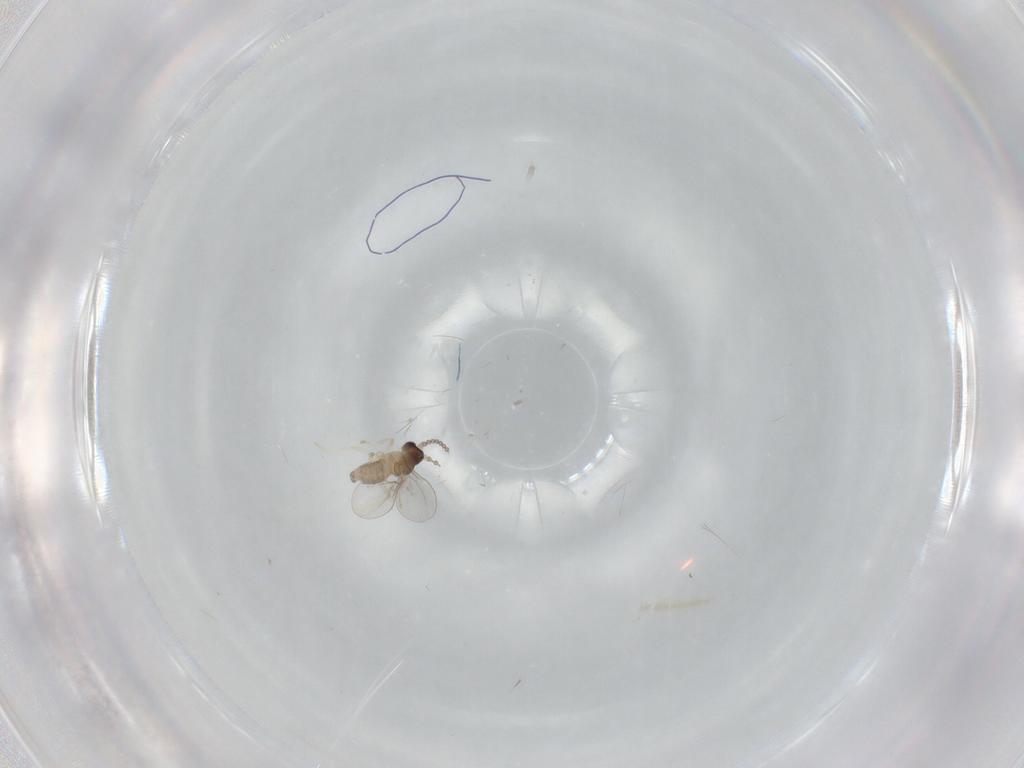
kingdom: Animalia
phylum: Arthropoda
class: Insecta
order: Diptera
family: Cecidomyiidae
